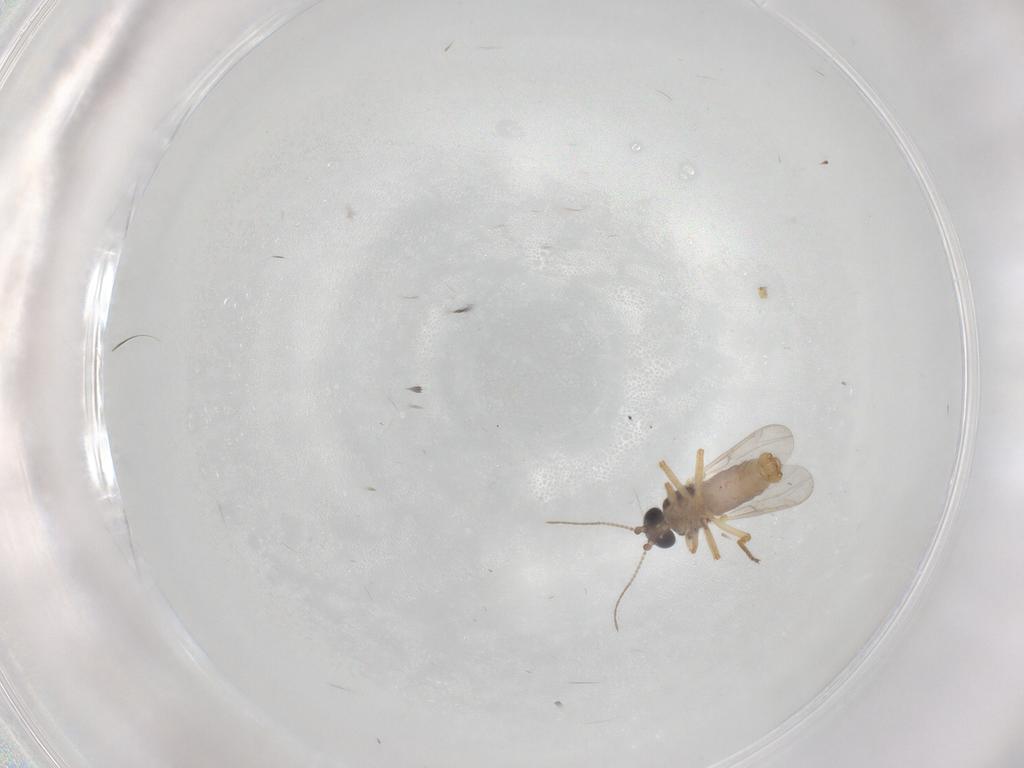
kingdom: Animalia
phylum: Arthropoda
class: Insecta
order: Diptera
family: Ceratopogonidae
